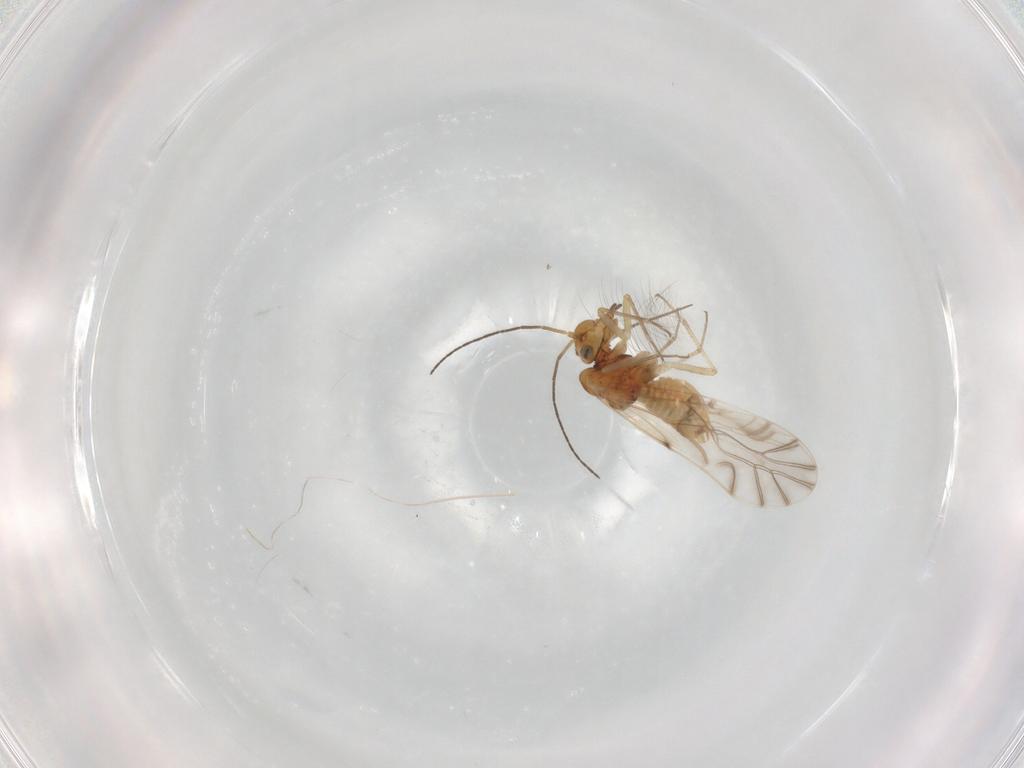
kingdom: Animalia
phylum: Arthropoda
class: Insecta
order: Psocodea
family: Lachesillidae
